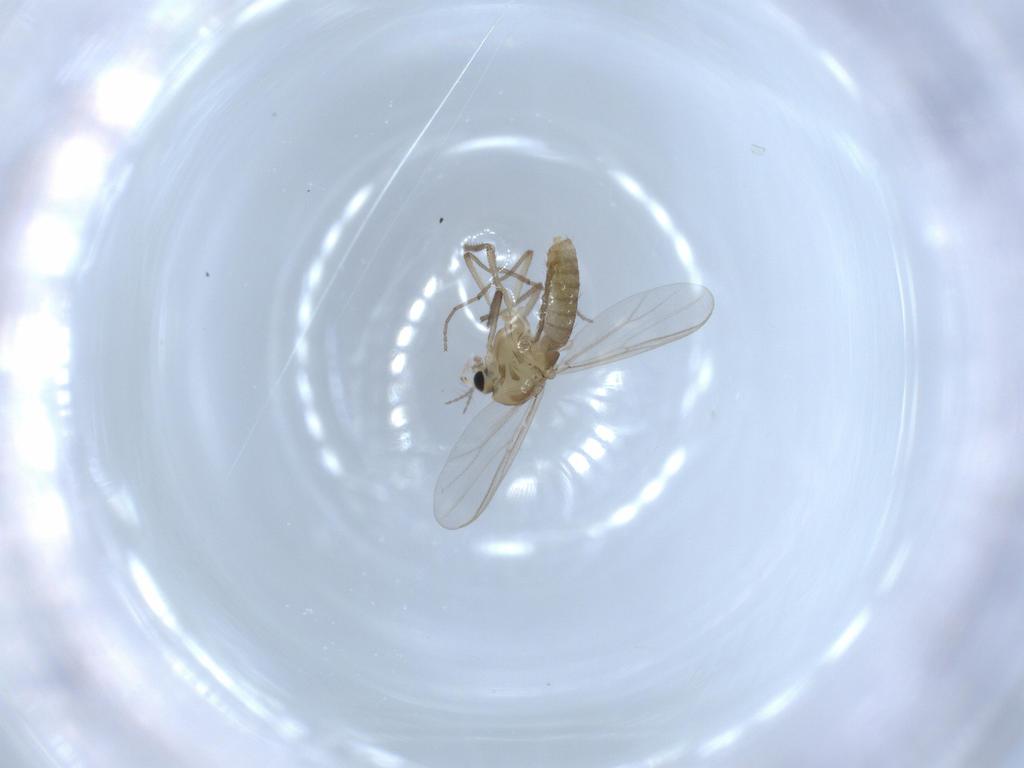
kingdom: Animalia
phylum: Arthropoda
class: Insecta
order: Diptera
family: Chironomidae
